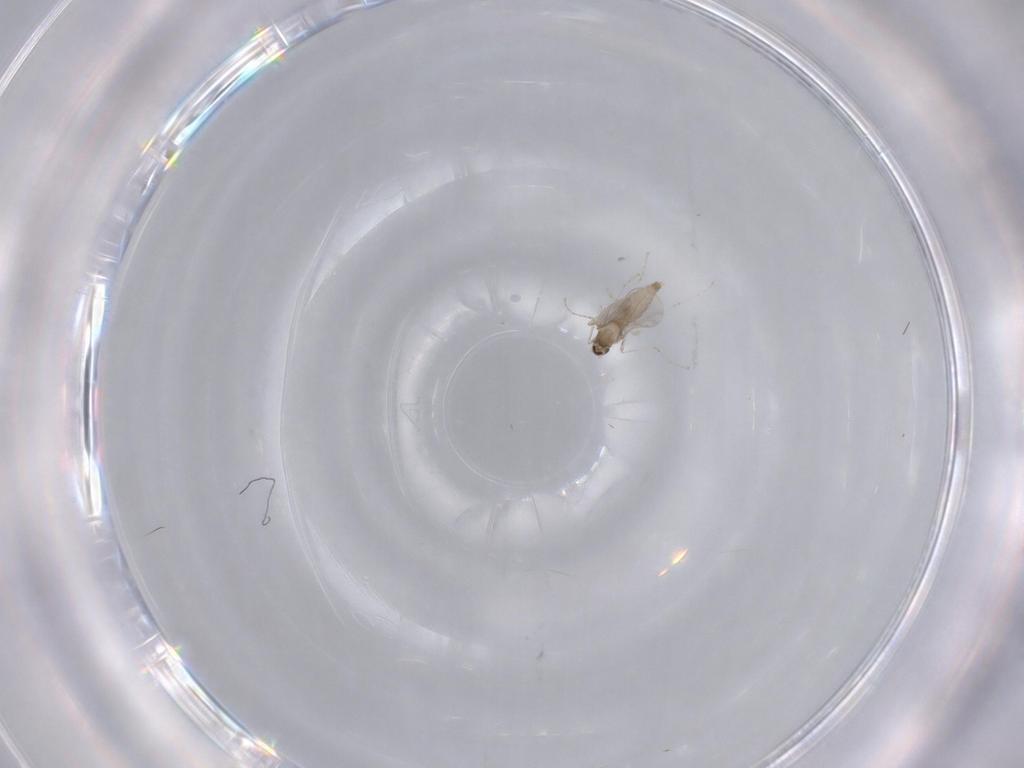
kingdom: Animalia
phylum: Arthropoda
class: Insecta
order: Diptera
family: Cecidomyiidae
